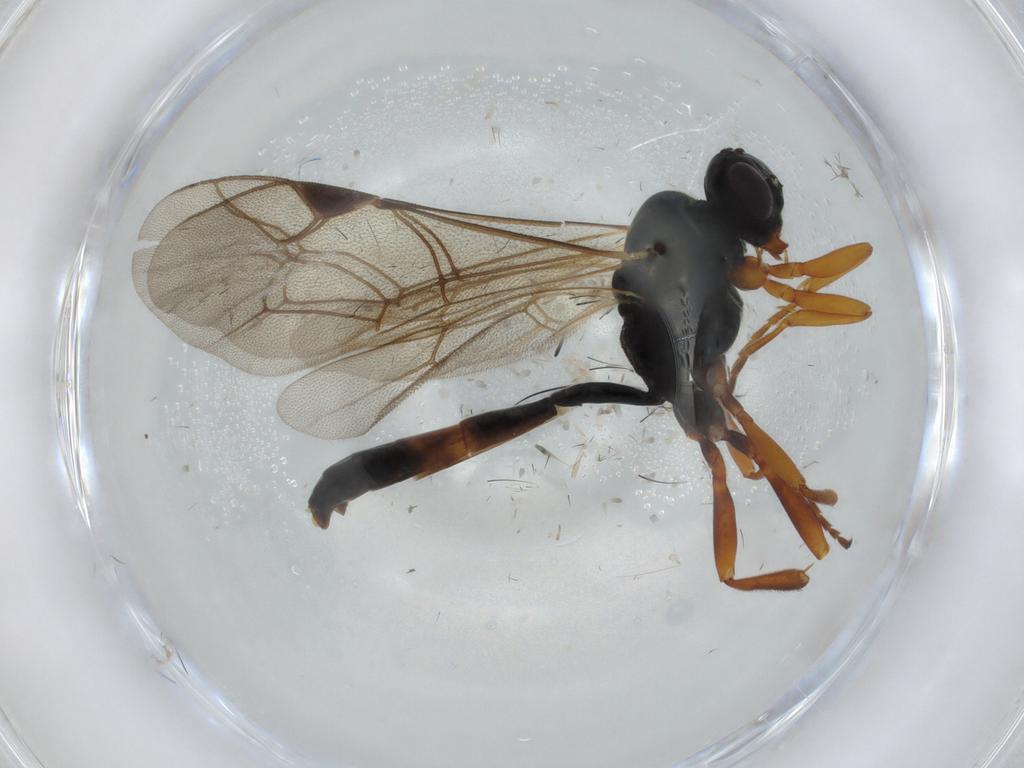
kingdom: Animalia
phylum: Arthropoda
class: Insecta
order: Hymenoptera
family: Ichneumonidae
